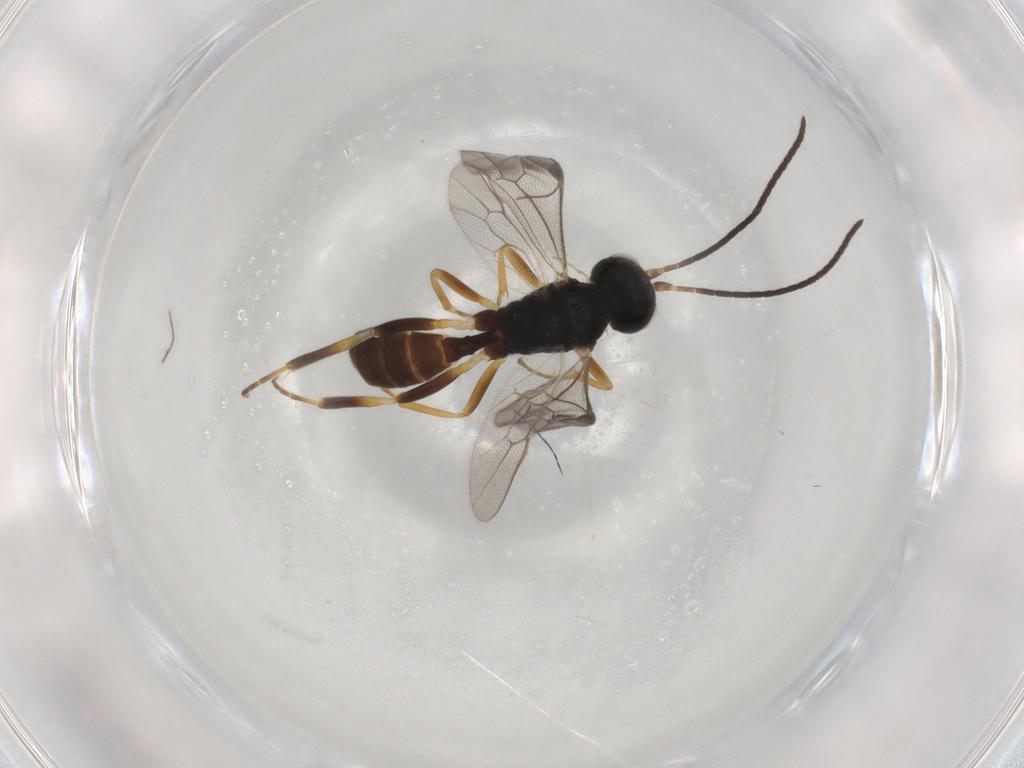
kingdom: Animalia
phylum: Arthropoda
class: Insecta
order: Hymenoptera
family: Ichneumonidae
